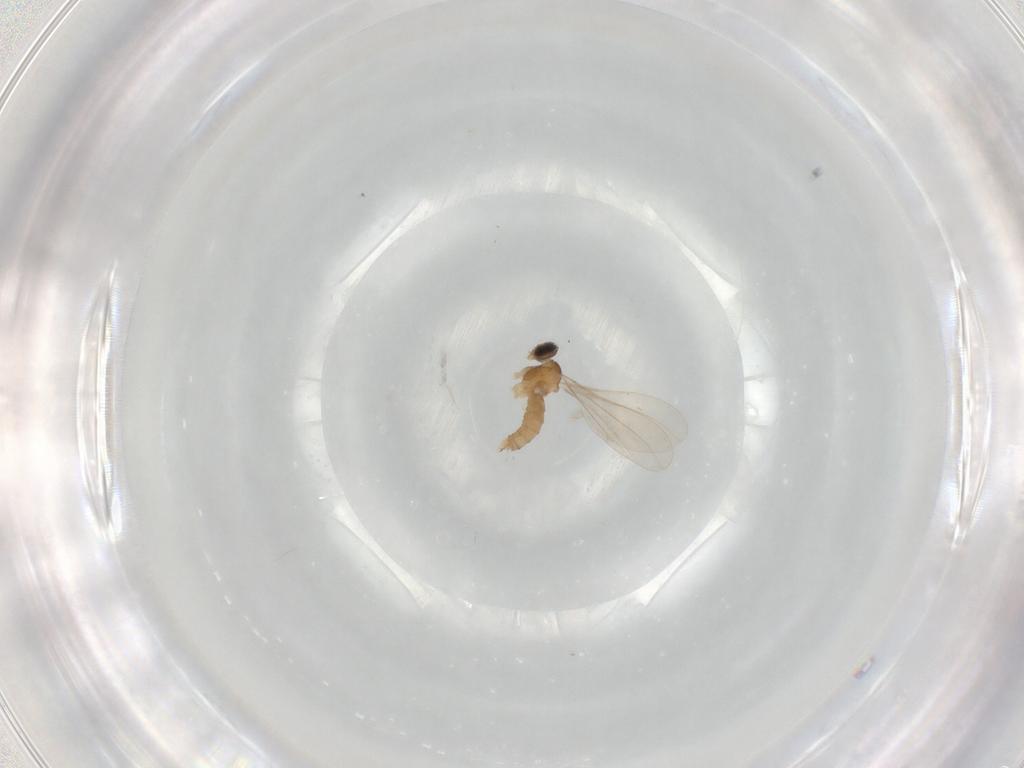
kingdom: Animalia
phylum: Arthropoda
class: Insecta
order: Diptera
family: Cecidomyiidae
